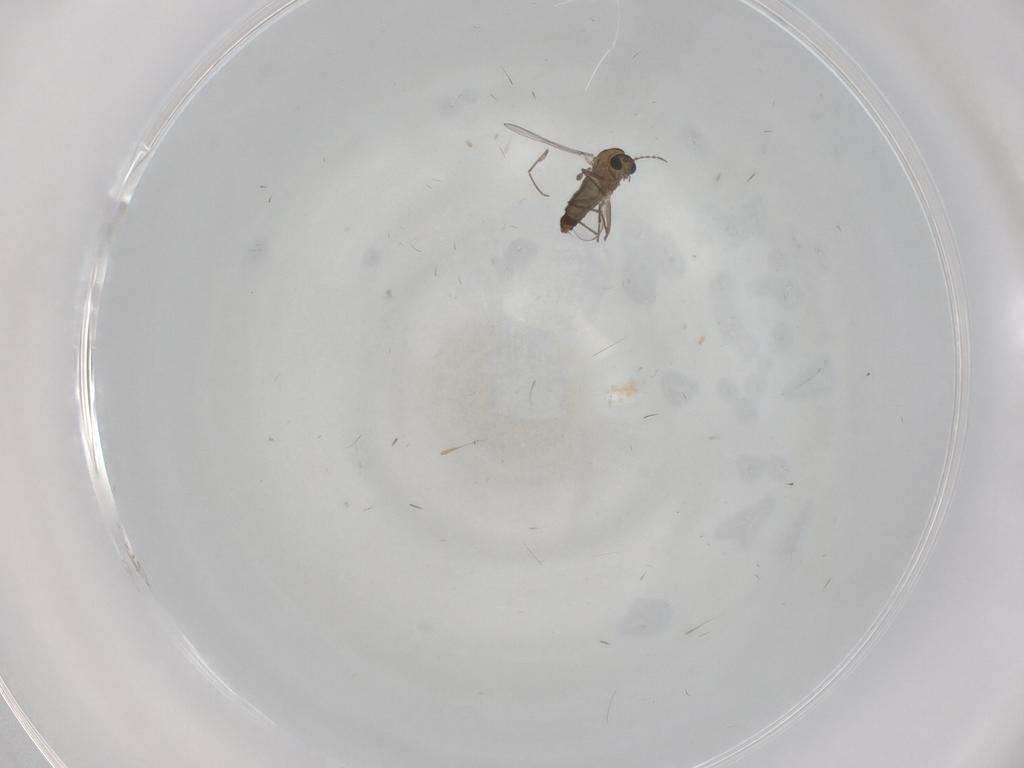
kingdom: Animalia
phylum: Arthropoda
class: Insecta
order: Diptera
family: Chironomidae
